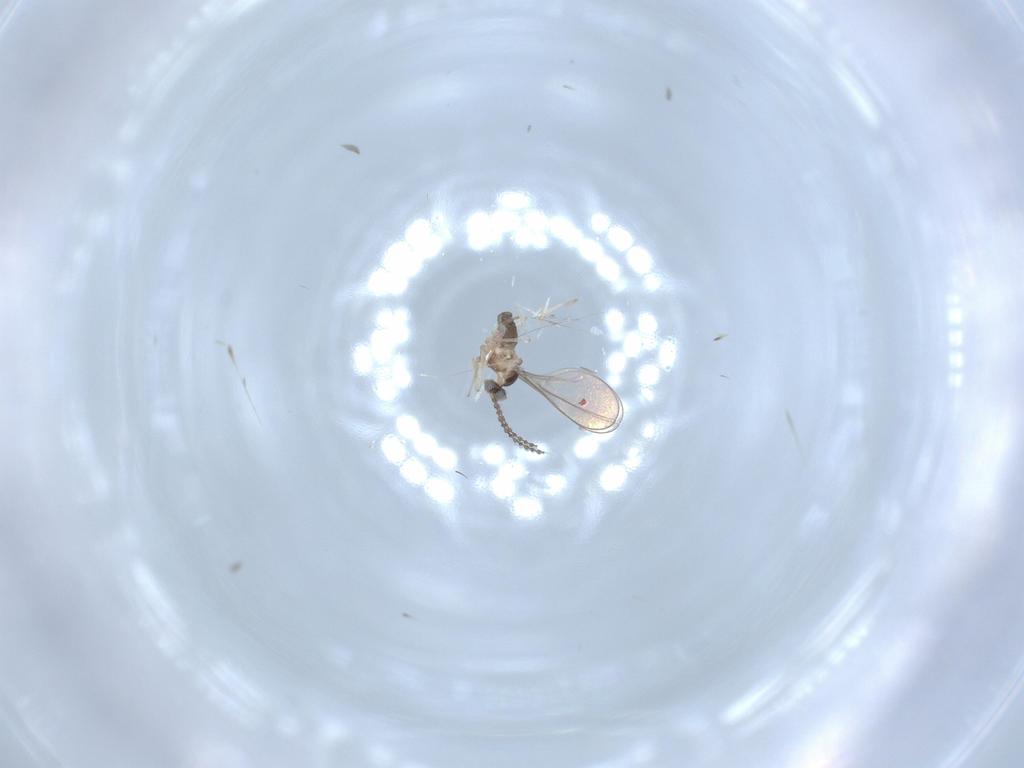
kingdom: Animalia
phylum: Arthropoda
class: Insecta
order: Diptera
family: Cecidomyiidae
